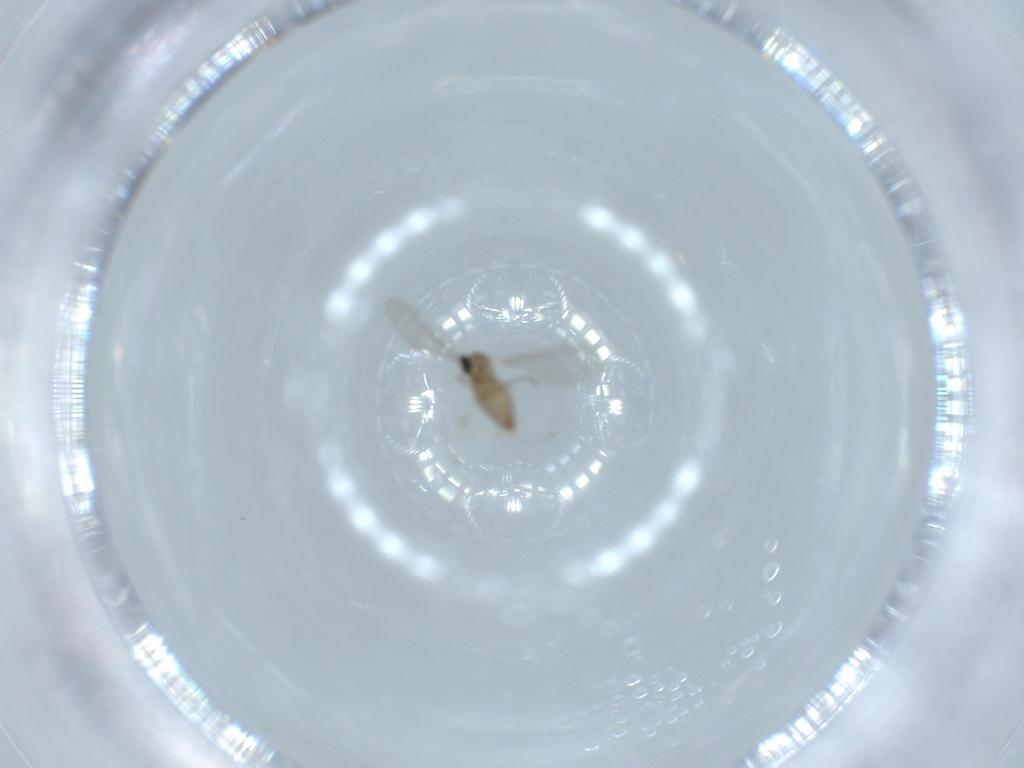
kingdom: Animalia
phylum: Arthropoda
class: Insecta
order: Diptera
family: Cecidomyiidae
